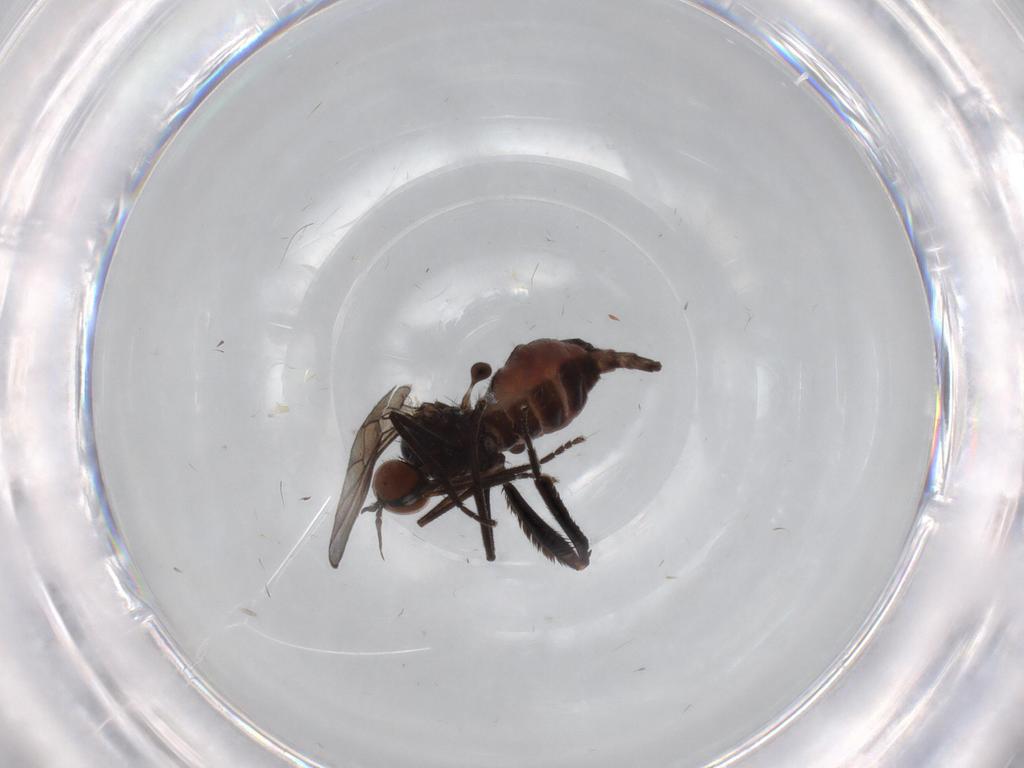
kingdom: Animalia
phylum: Arthropoda
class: Insecta
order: Diptera
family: Empididae
